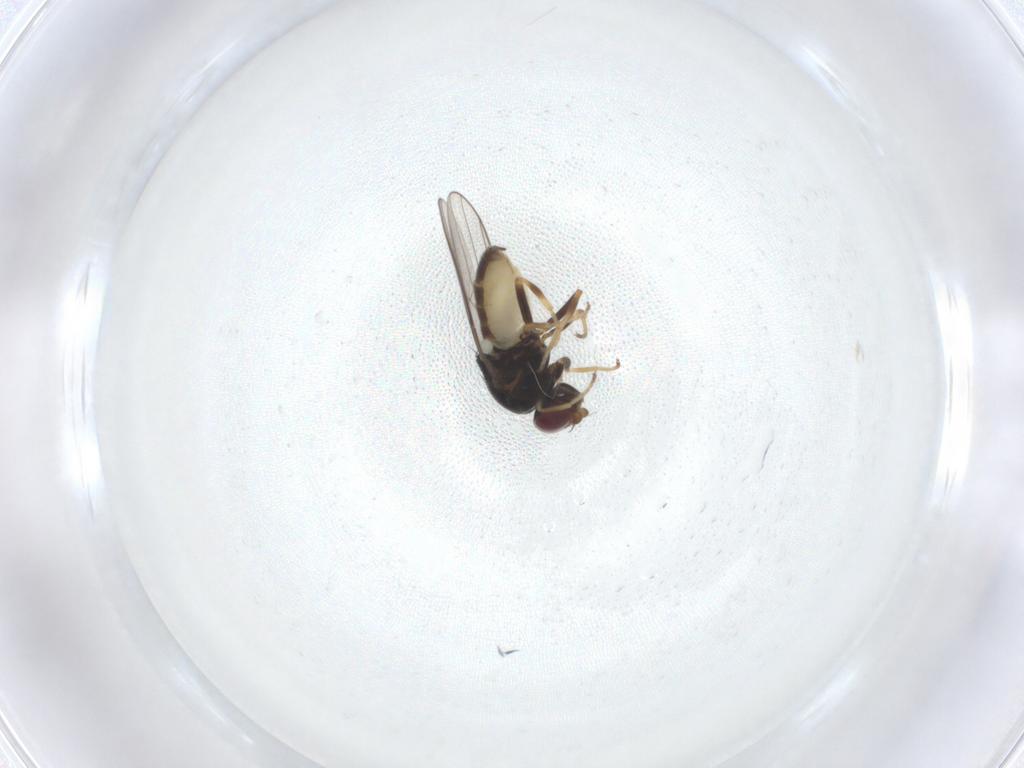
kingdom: Animalia
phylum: Arthropoda
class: Insecta
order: Diptera
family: Chloropidae
